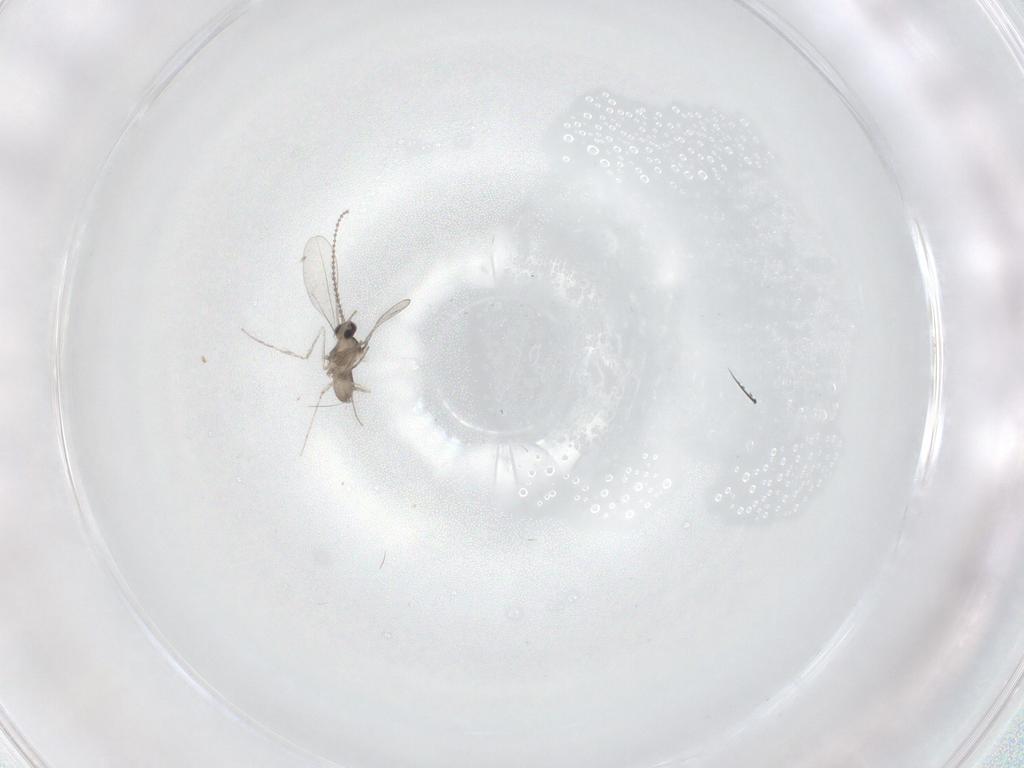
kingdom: Animalia
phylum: Arthropoda
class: Insecta
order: Diptera
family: Cecidomyiidae
